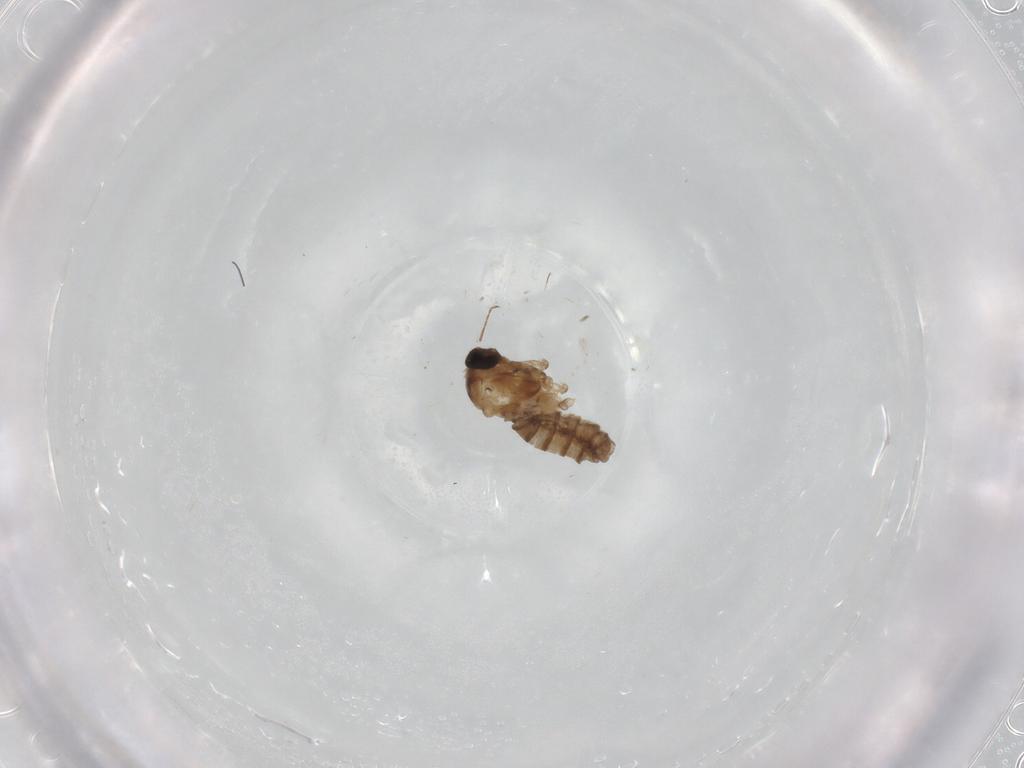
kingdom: Animalia
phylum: Arthropoda
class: Insecta
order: Diptera
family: Cecidomyiidae
